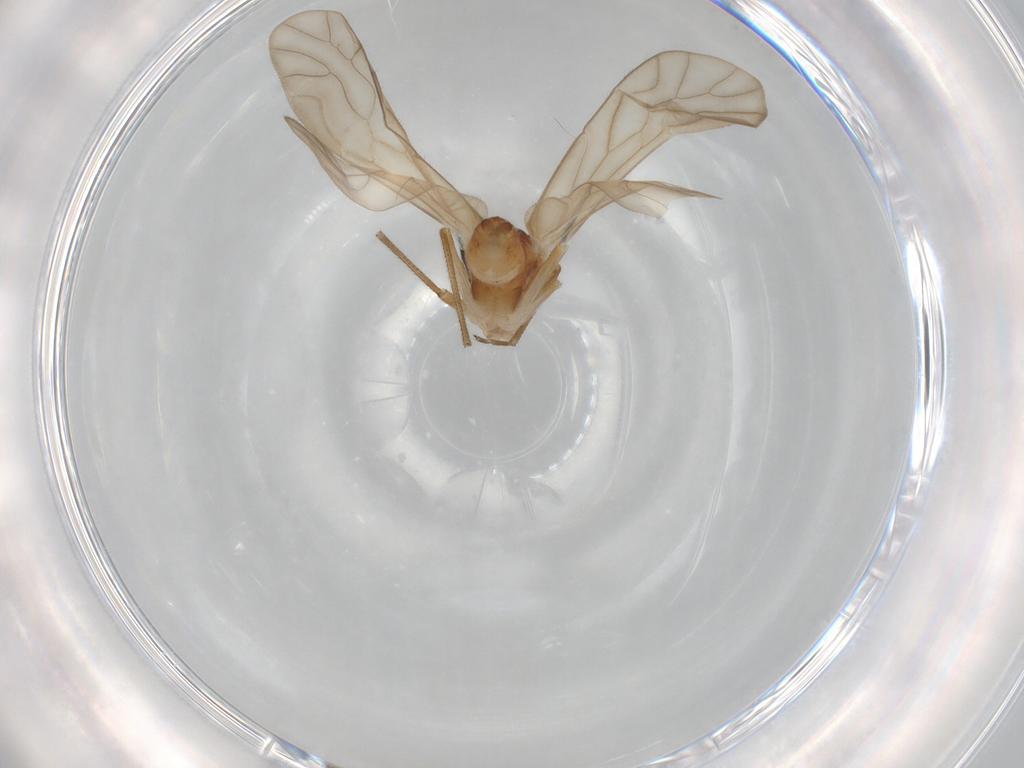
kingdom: Animalia
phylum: Arthropoda
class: Insecta
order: Psocodea
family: Caeciliusidae
